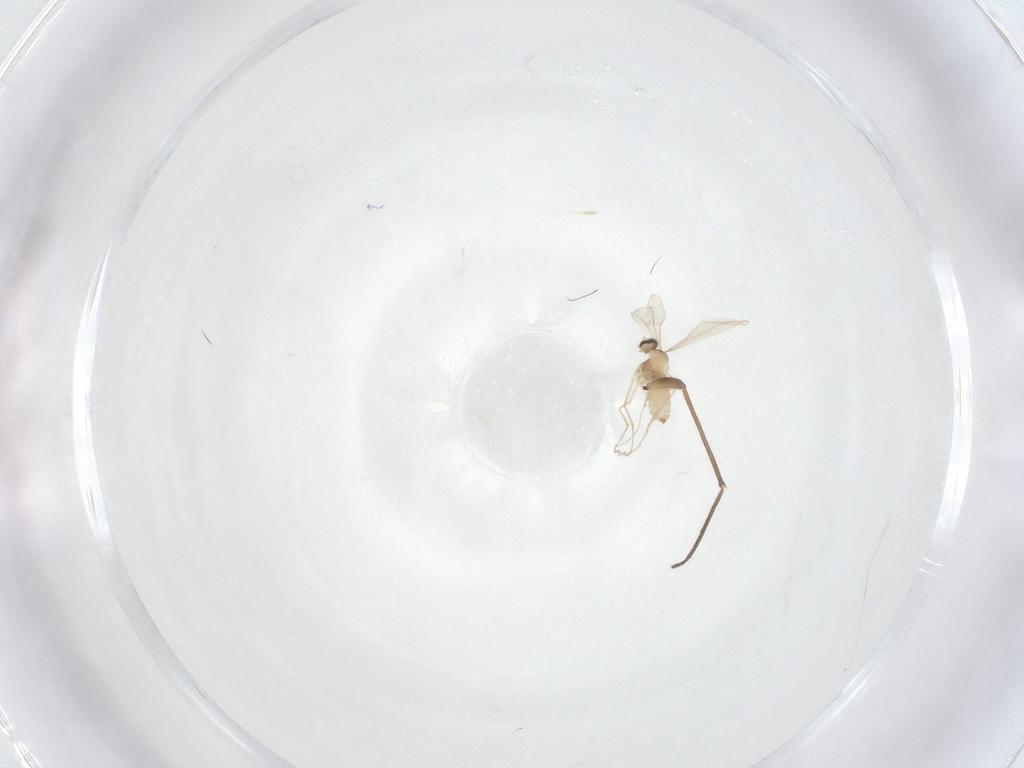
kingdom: Animalia
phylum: Arthropoda
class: Insecta
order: Diptera
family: Cecidomyiidae
